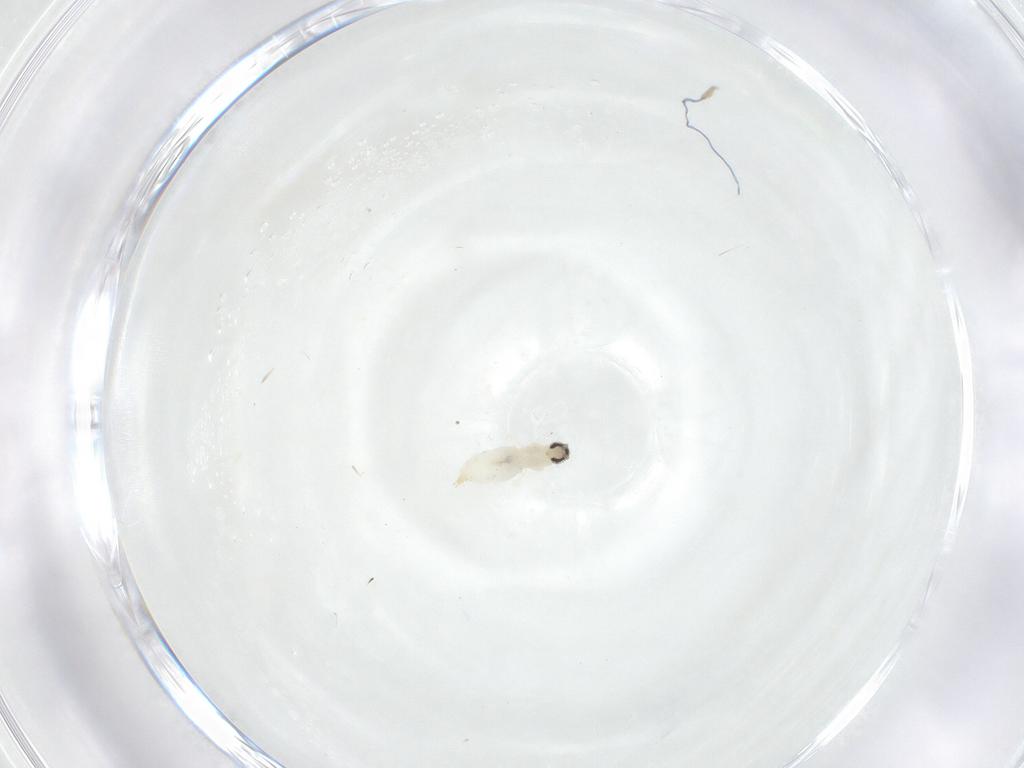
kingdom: Animalia
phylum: Arthropoda
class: Insecta
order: Diptera
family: Cecidomyiidae
